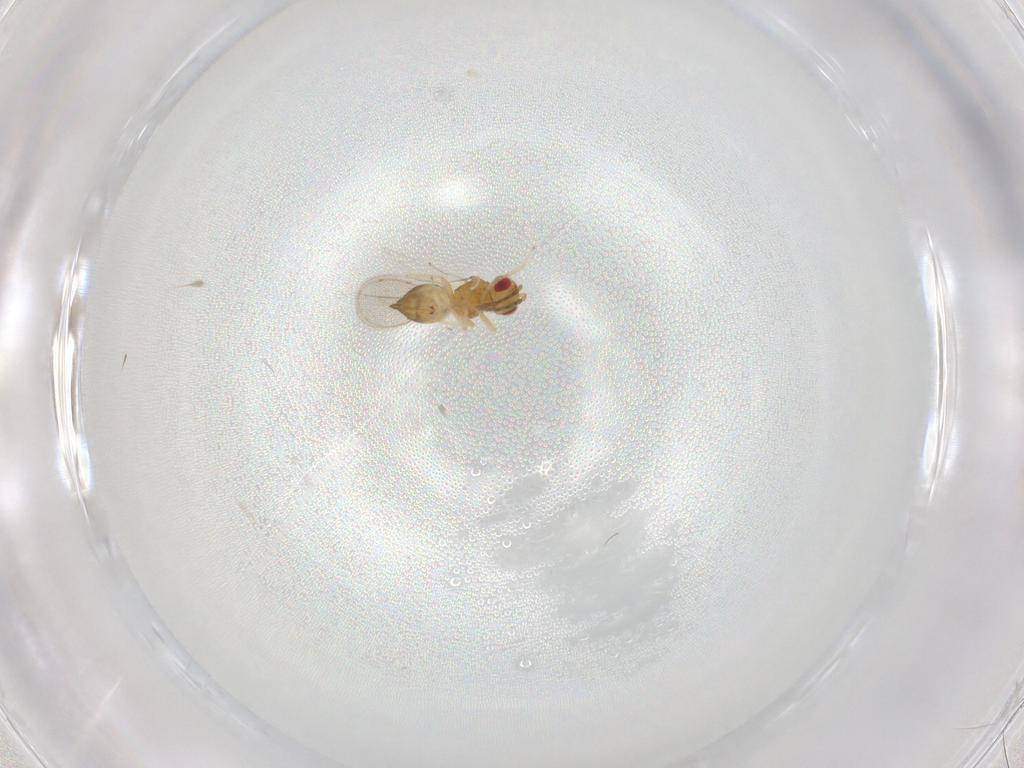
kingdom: Animalia
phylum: Arthropoda
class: Insecta
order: Hymenoptera
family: Eulophidae
